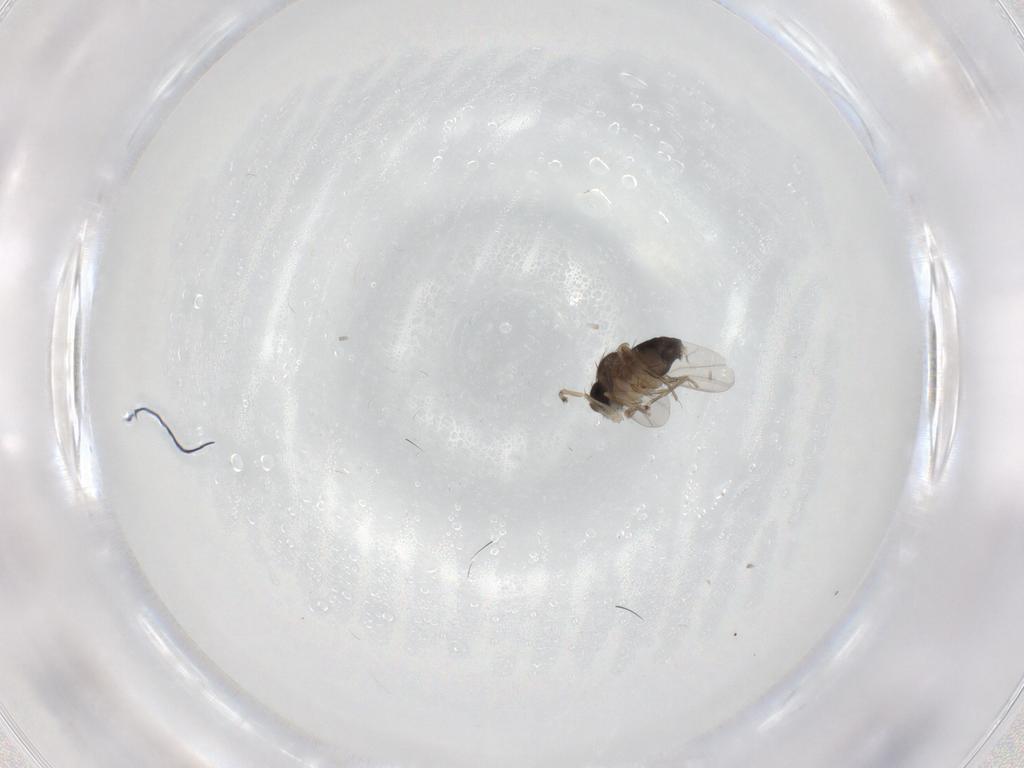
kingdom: Animalia
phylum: Arthropoda
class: Insecta
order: Diptera
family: Phoridae
